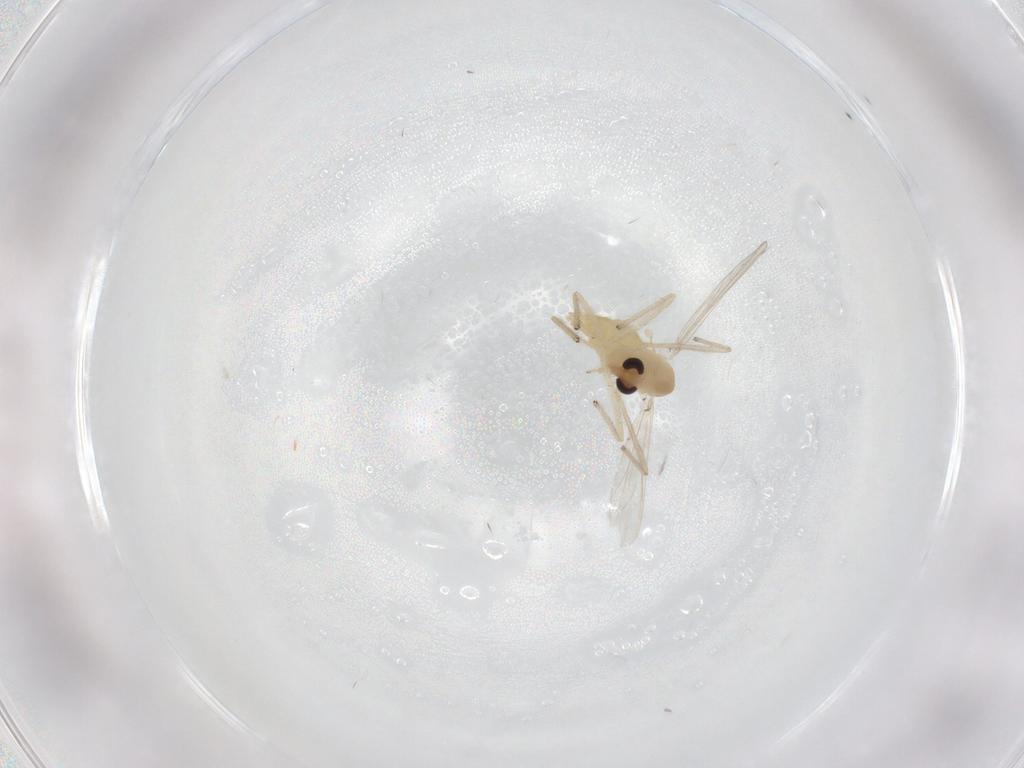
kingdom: Animalia
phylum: Arthropoda
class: Insecta
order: Diptera
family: Chironomidae
